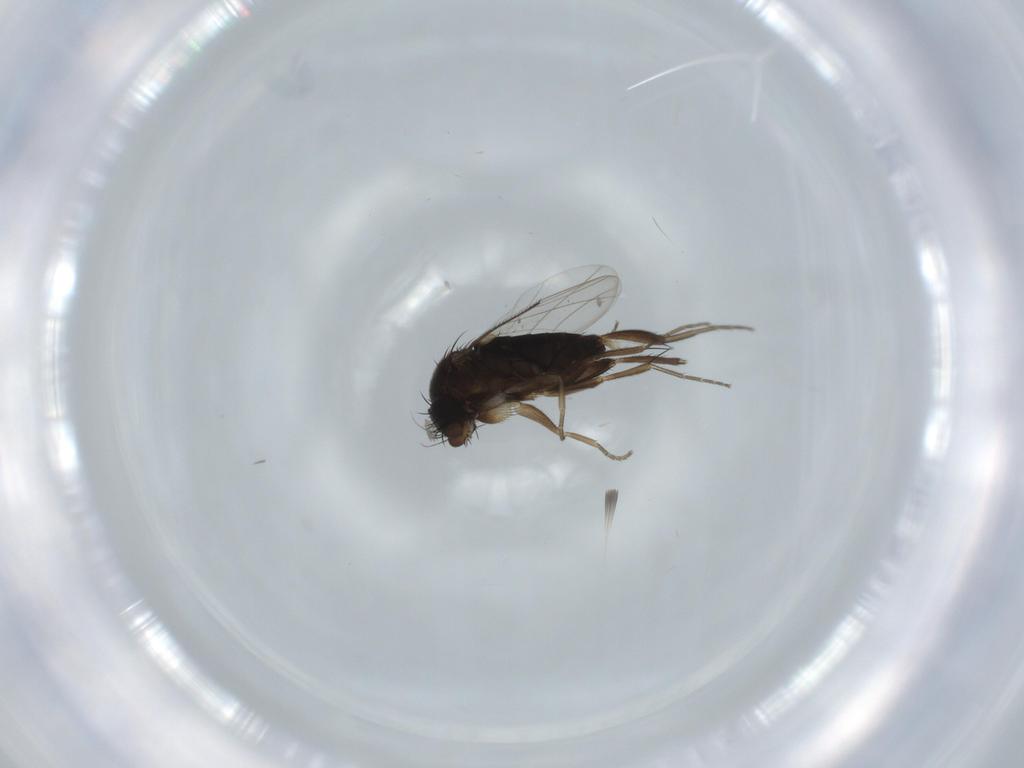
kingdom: Animalia
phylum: Arthropoda
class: Insecta
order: Diptera
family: Phoridae
